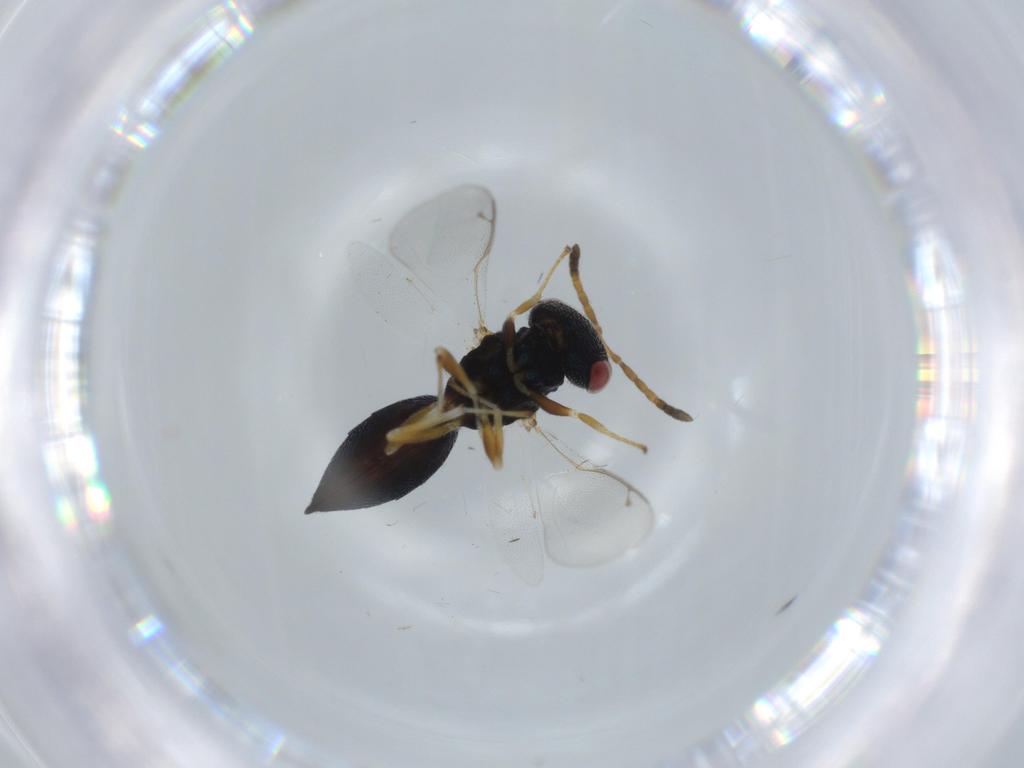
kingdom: Animalia
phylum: Arthropoda
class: Insecta
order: Hymenoptera
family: Pteromalidae
